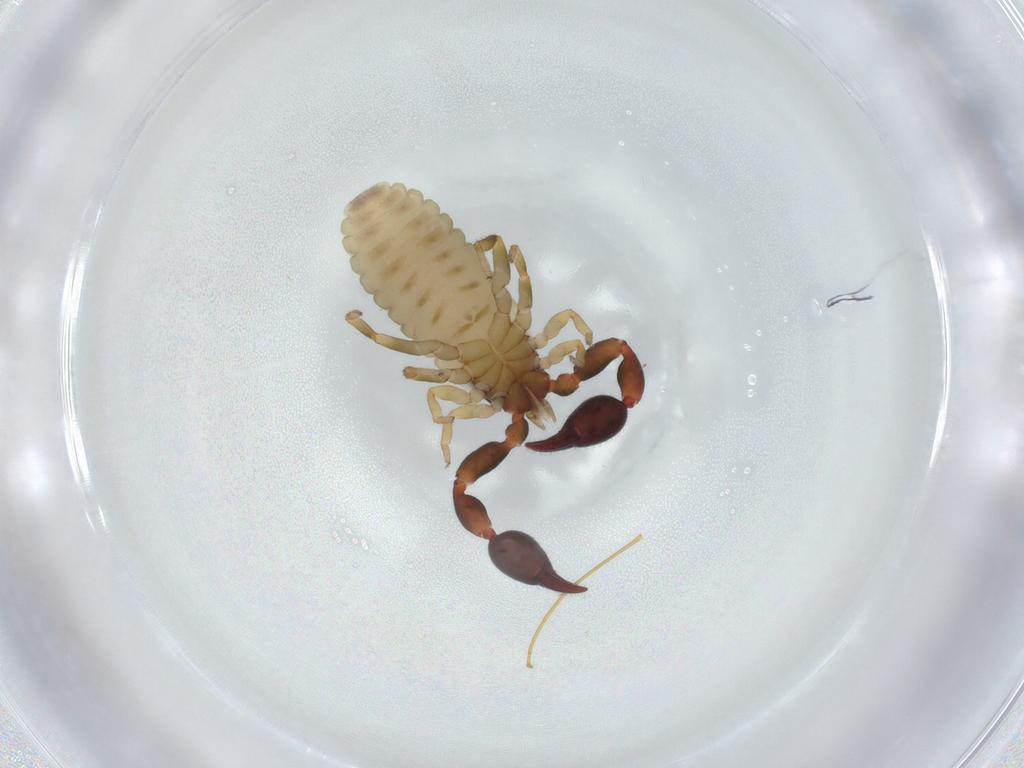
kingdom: Animalia
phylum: Arthropoda
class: Arachnida
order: Pseudoscorpiones
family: Chernetidae
